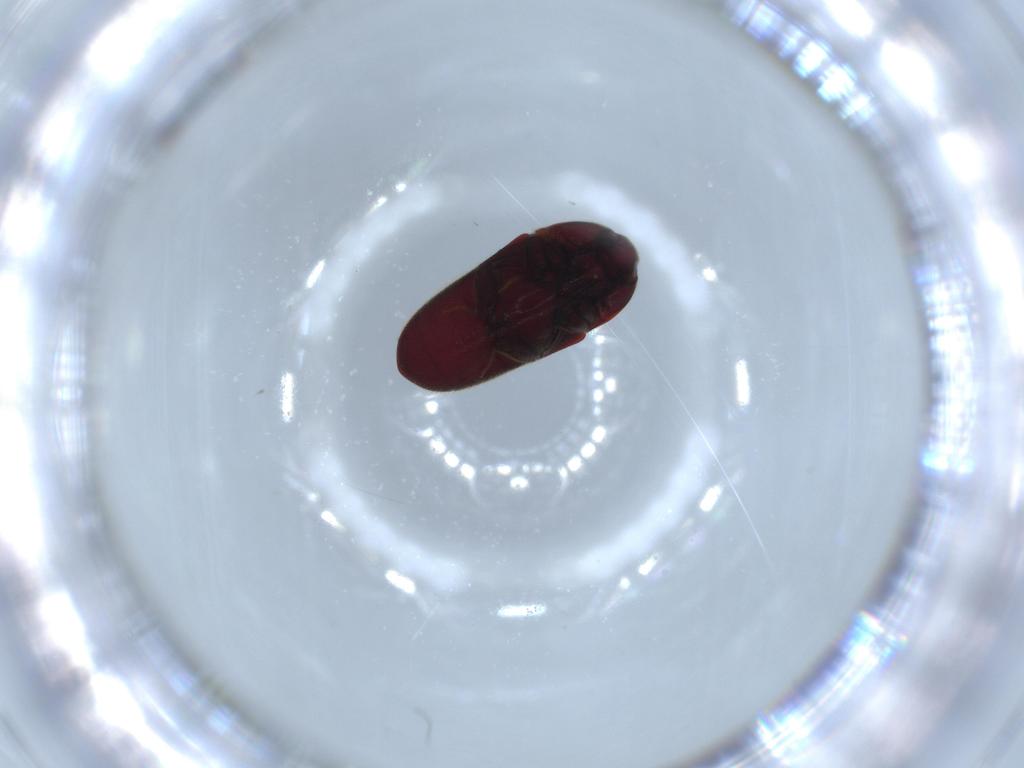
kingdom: Animalia
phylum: Arthropoda
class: Insecta
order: Coleoptera
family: Throscidae
